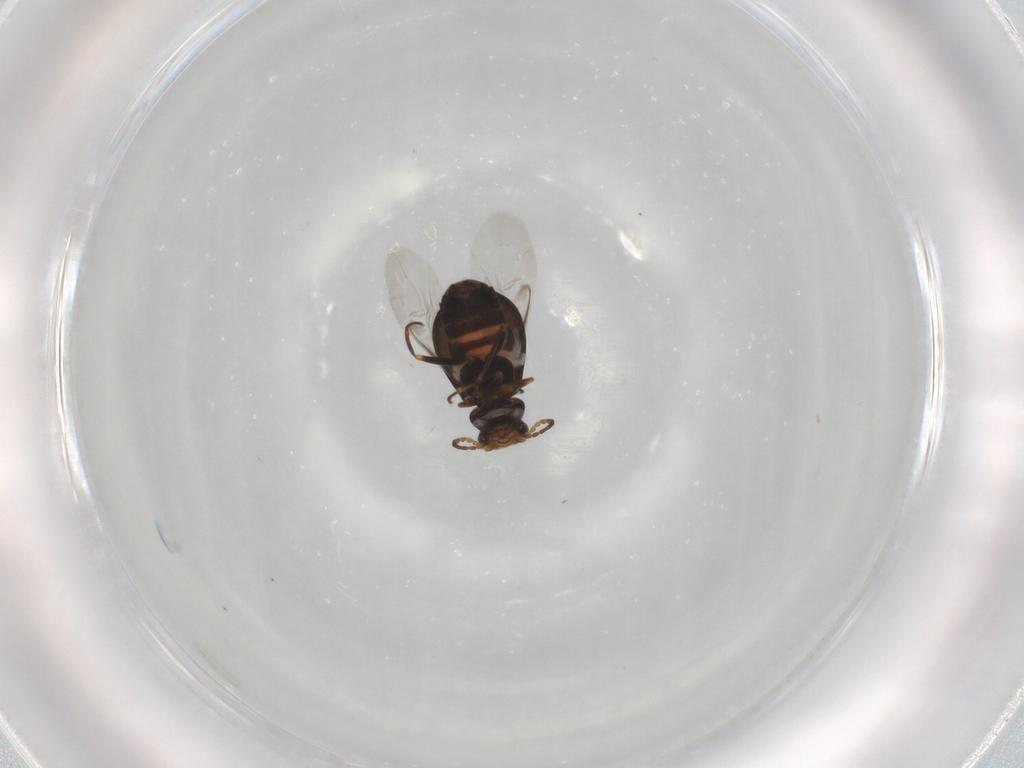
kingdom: Animalia
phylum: Arthropoda
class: Insecta
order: Coleoptera
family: Melyridae
